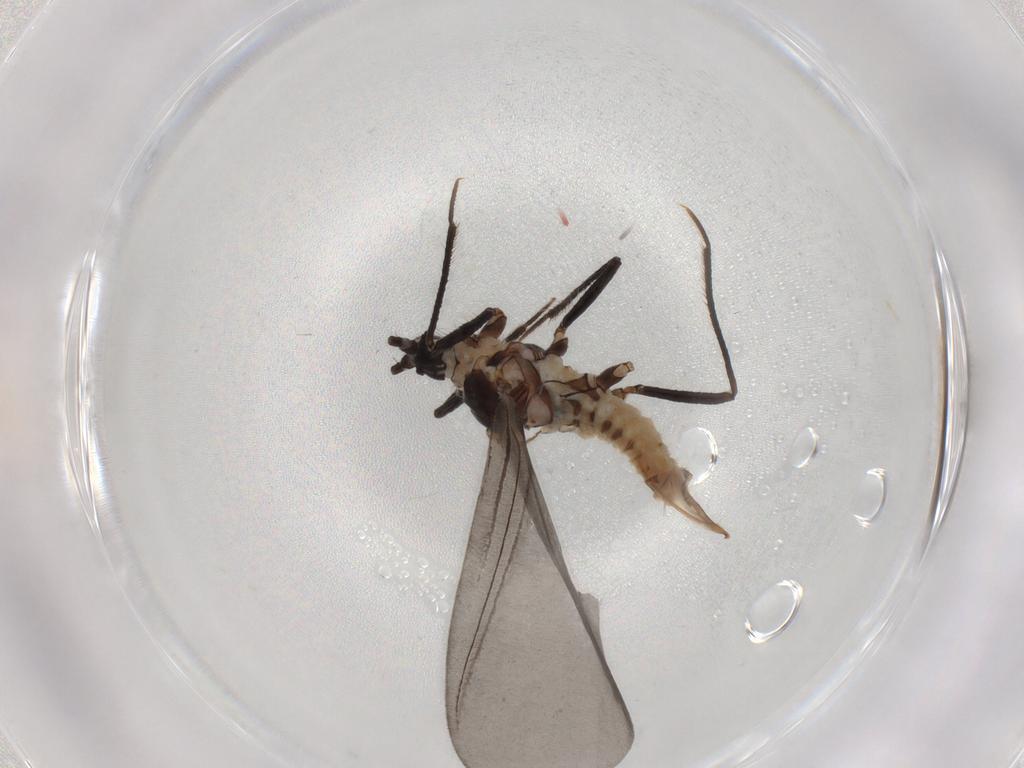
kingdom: Animalia
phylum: Arthropoda
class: Insecta
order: Hemiptera
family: Putoidae
